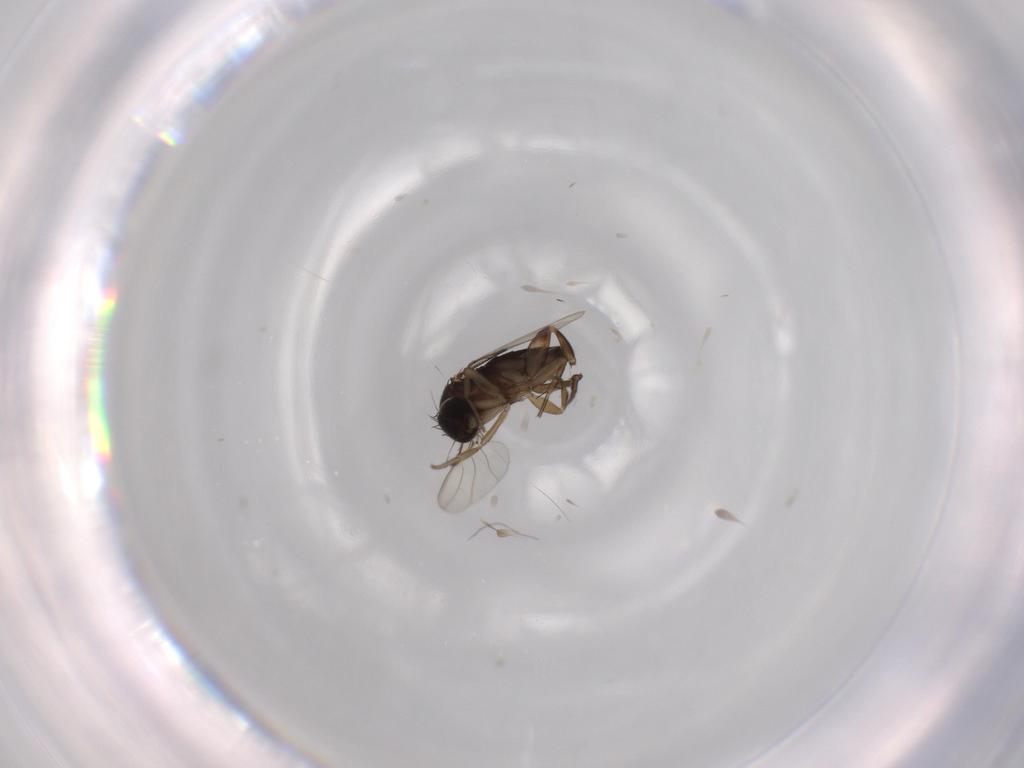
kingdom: Animalia
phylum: Arthropoda
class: Insecta
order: Diptera
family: Phoridae
